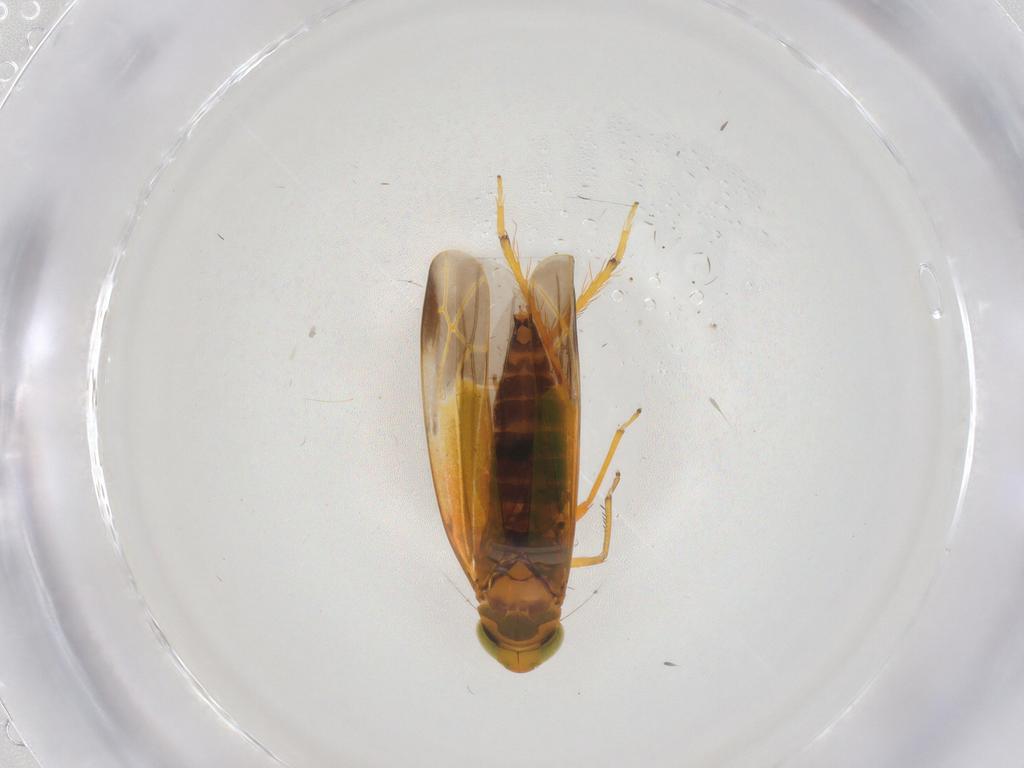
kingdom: Animalia
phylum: Arthropoda
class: Insecta
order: Hemiptera
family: Cicadellidae
